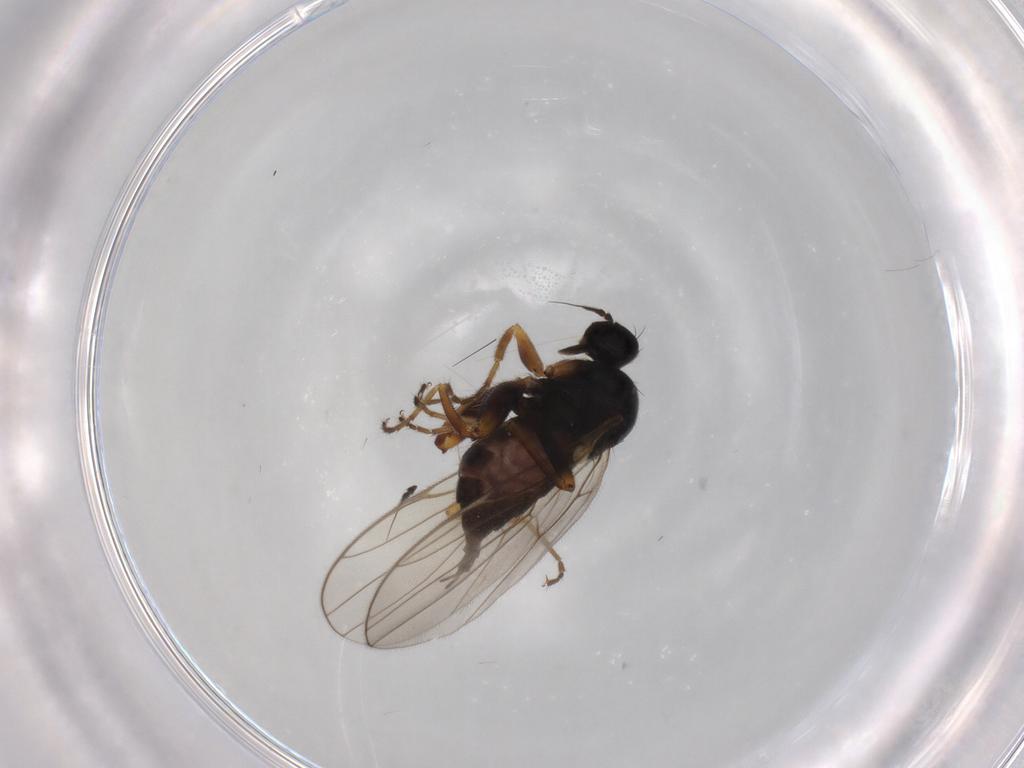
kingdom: Animalia
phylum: Arthropoda
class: Insecta
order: Diptera
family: Hybotidae
